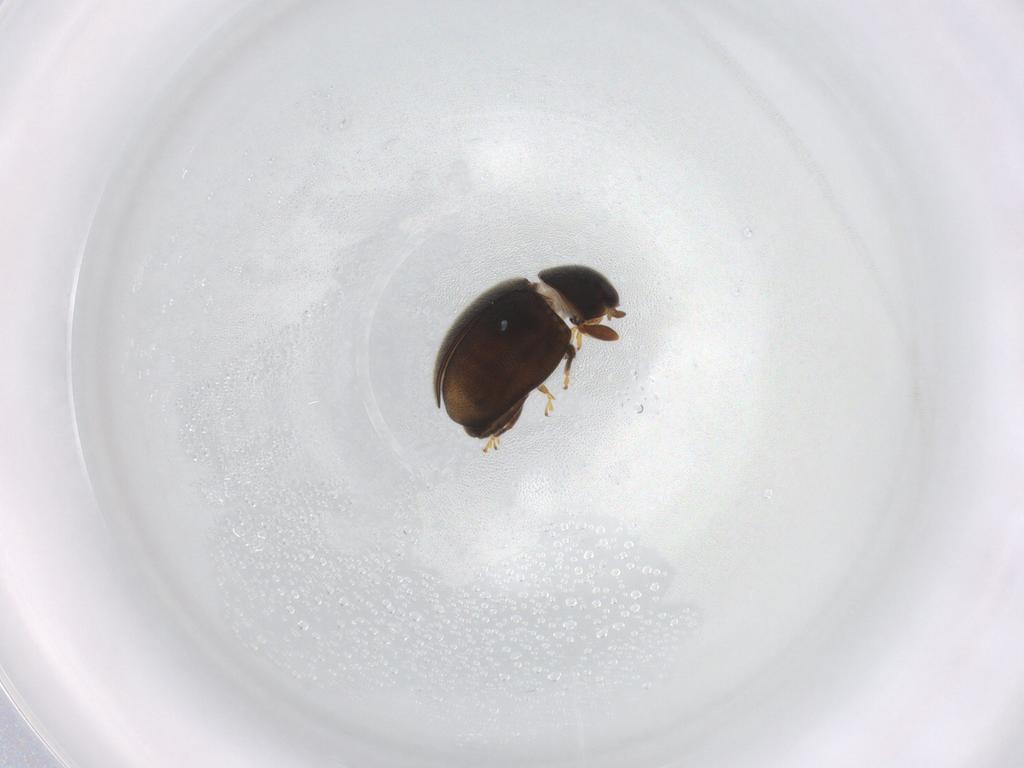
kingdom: Animalia
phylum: Arthropoda
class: Insecta
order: Coleoptera
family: Coccinellidae
